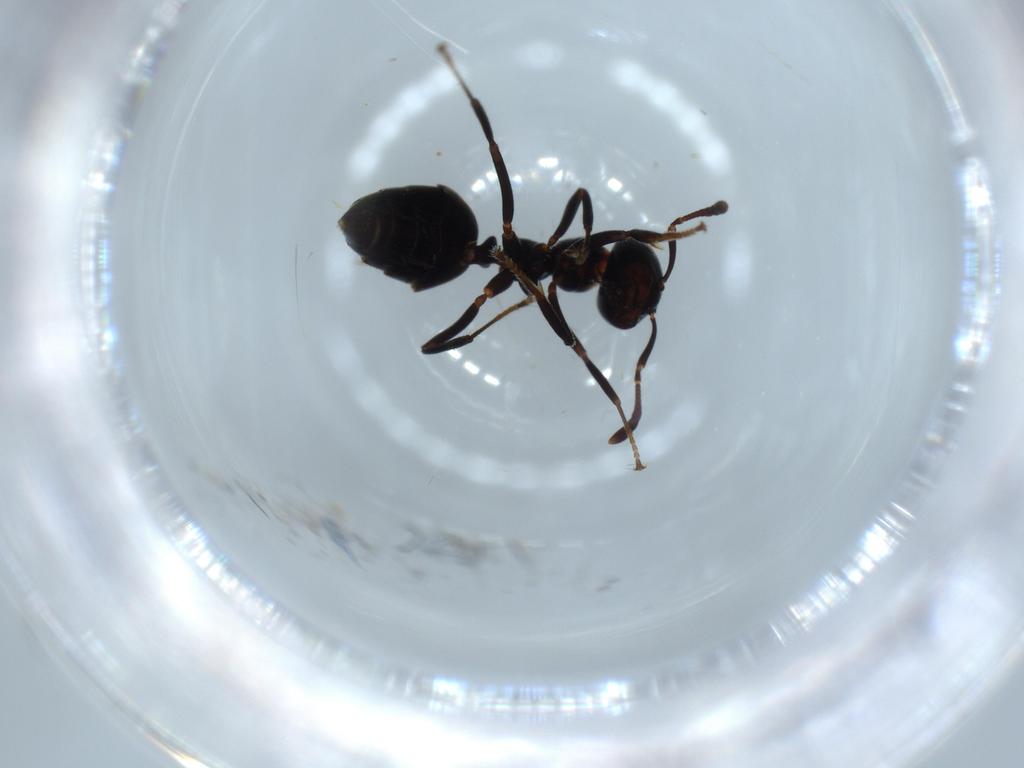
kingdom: Animalia
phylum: Arthropoda
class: Insecta
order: Hymenoptera
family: Formicidae
